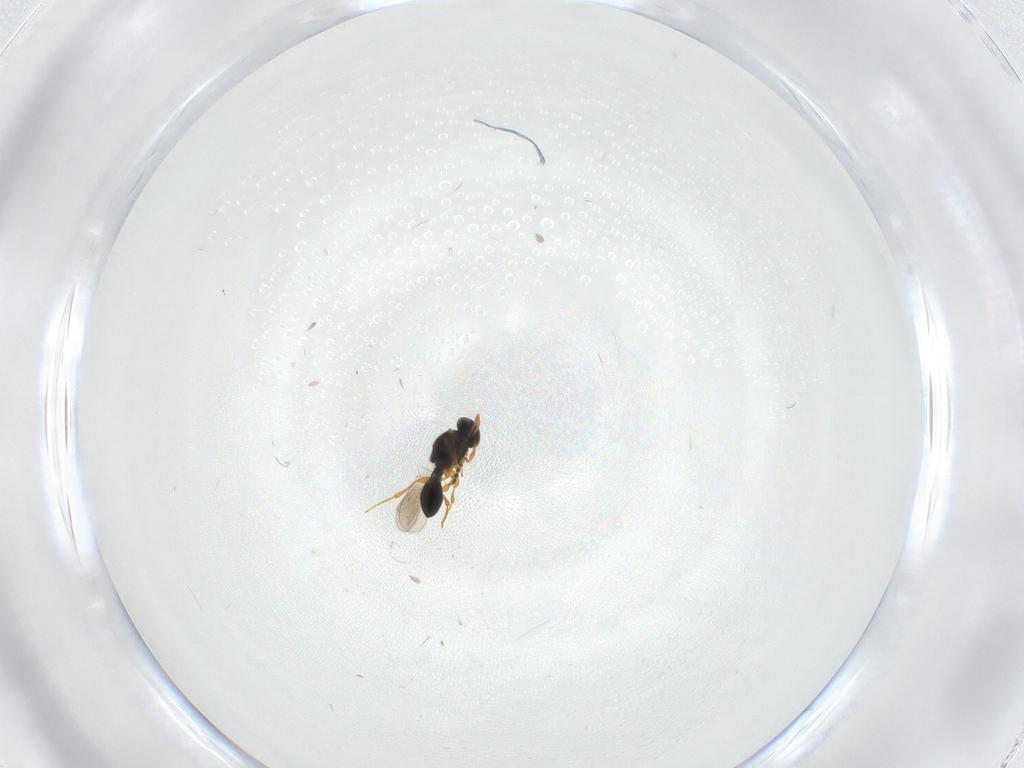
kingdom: Animalia
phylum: Arthropoda
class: Insecta
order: Hymenoptera
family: Platygastridae
